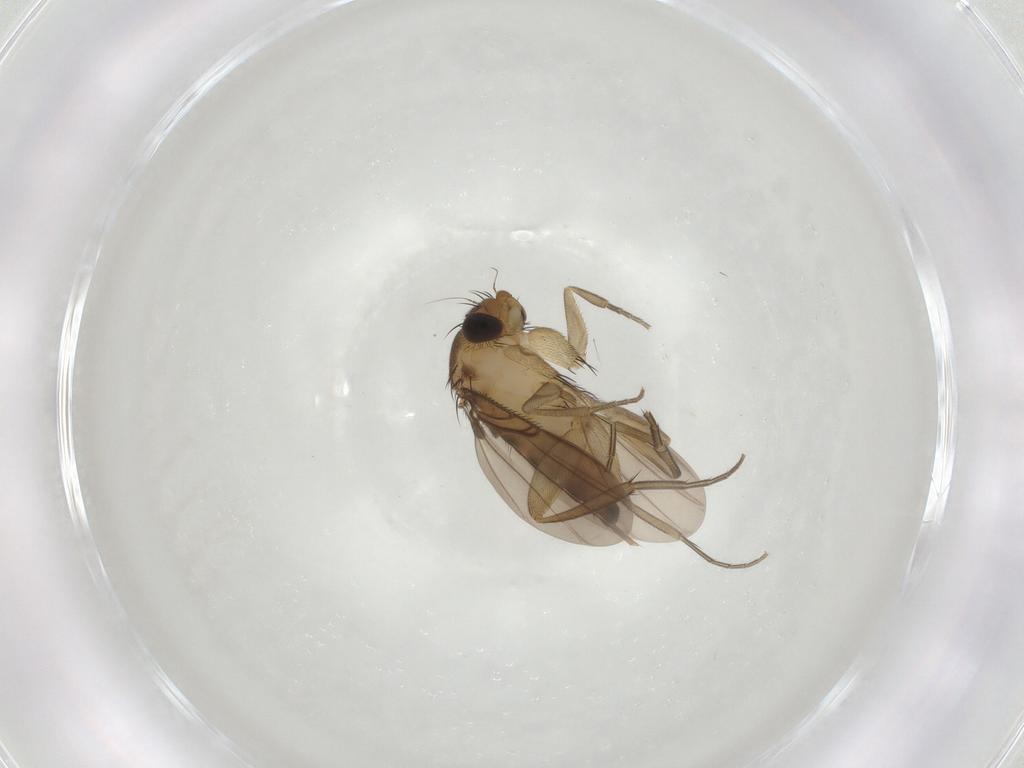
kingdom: Animalia
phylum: Arthropoda
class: Insecta
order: Diptera
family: Phoridae
